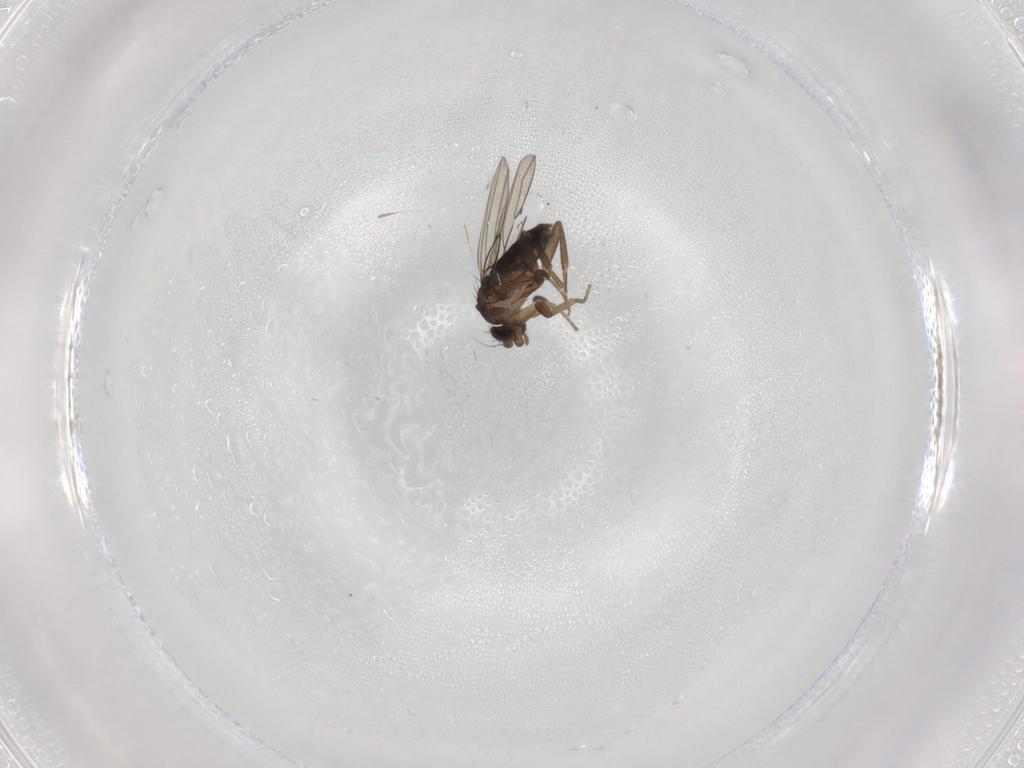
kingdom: Animalia
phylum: Arthropoda
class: Insecta
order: Diptera
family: Phoridae
